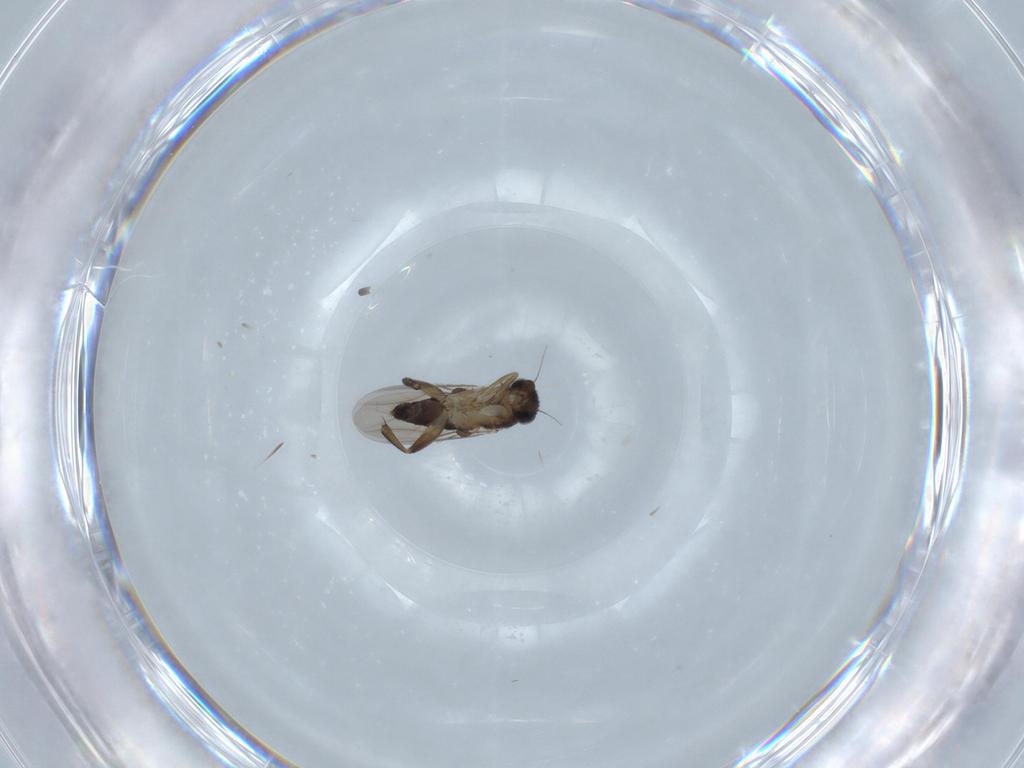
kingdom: Animalia
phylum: Arthropoda
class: Insecta
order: Diptera
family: Phoridae
